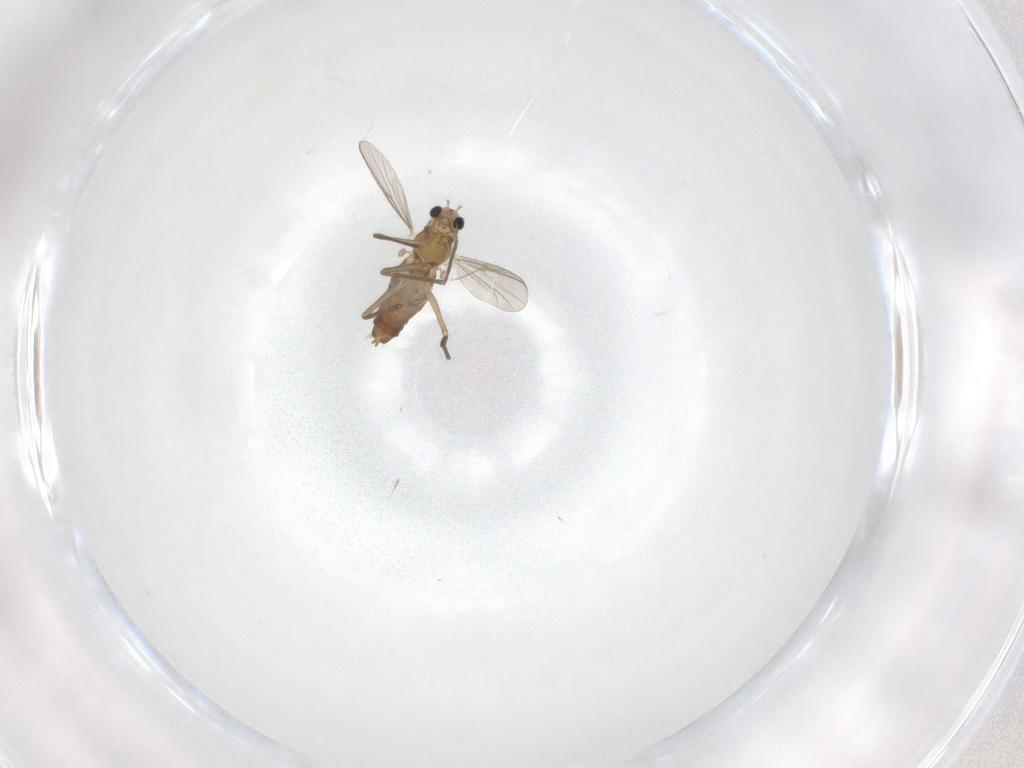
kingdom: Animalia
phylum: Arthropoda
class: Insecta
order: Diptera
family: Chironomidae
